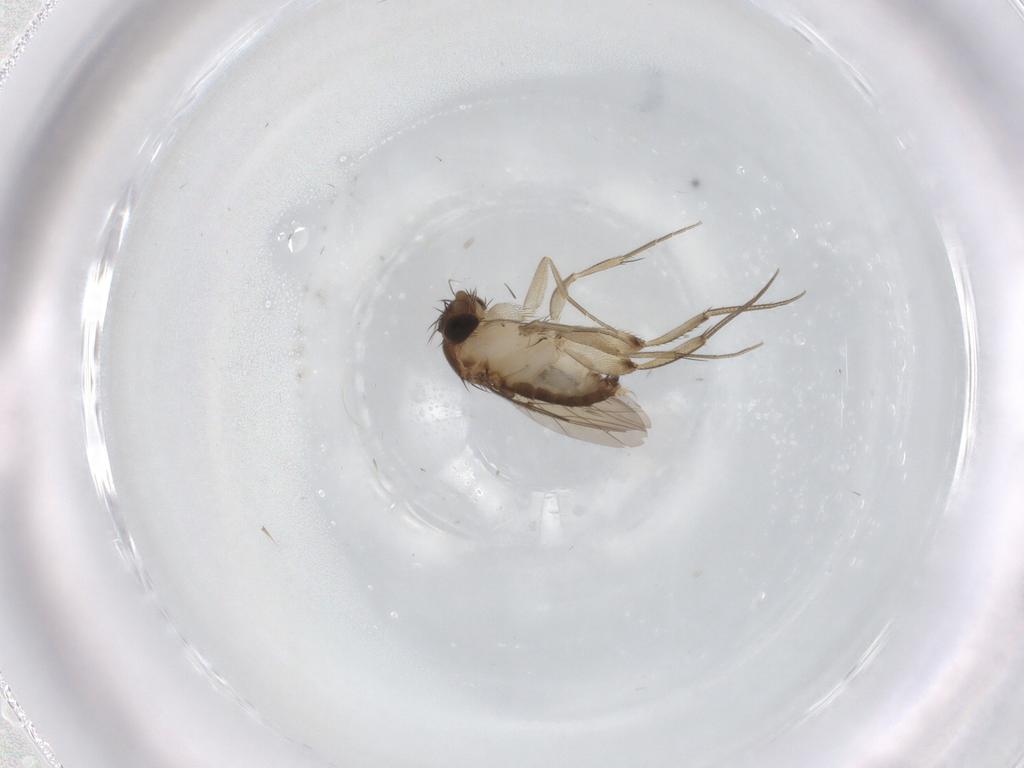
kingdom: Animalia
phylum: Arthropoda
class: Insecta
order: Diptera
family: Phoridae
